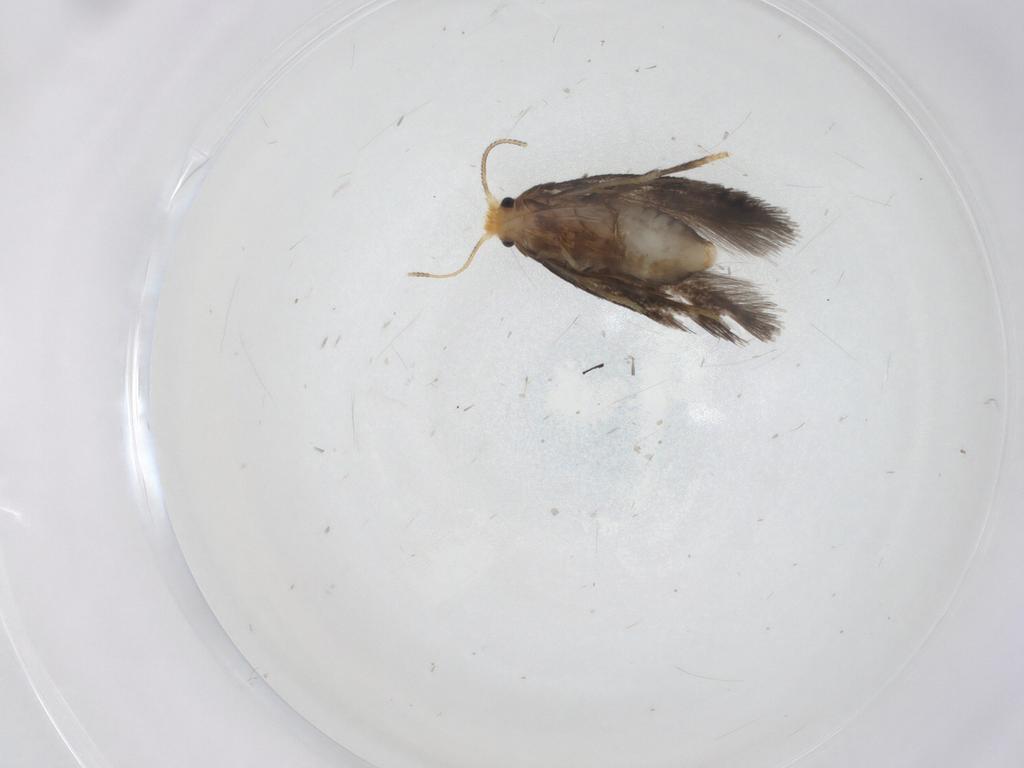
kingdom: Animalia
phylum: Arthropoda
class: Insecta
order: Lepidoptera
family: Nepticulidae
